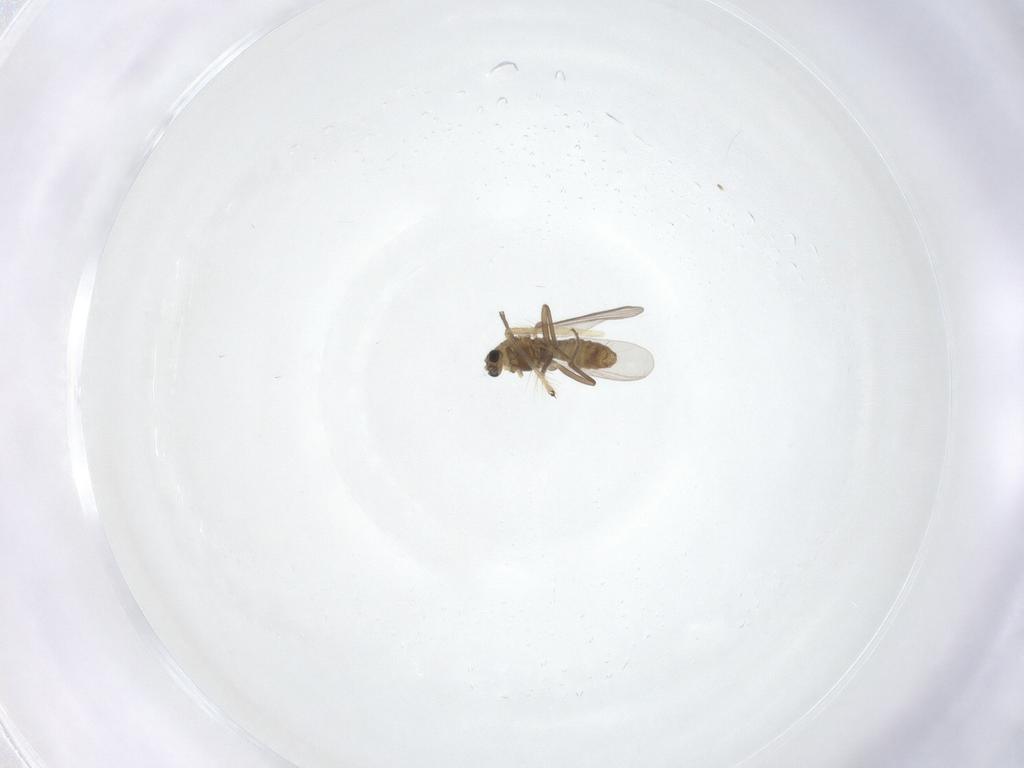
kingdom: Animalia
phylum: Arthropoda
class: Insecta
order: Diptera
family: Chironomidae
